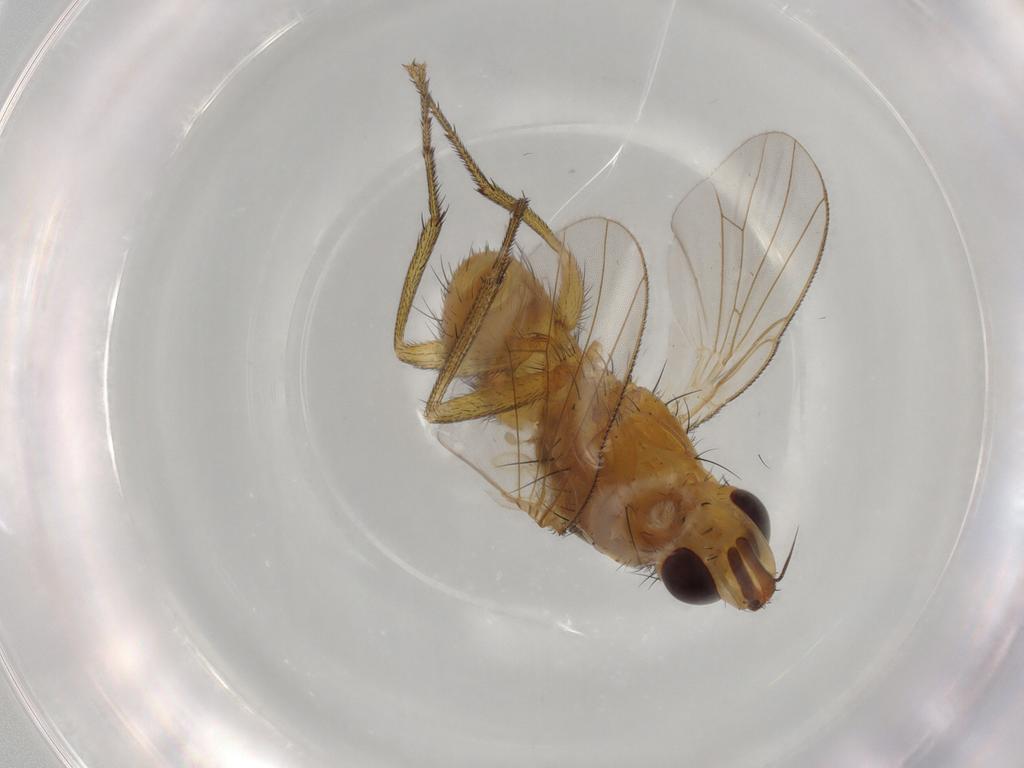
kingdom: Animalia
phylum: Arthropoda
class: Insecta
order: Diptera
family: Muscidae
